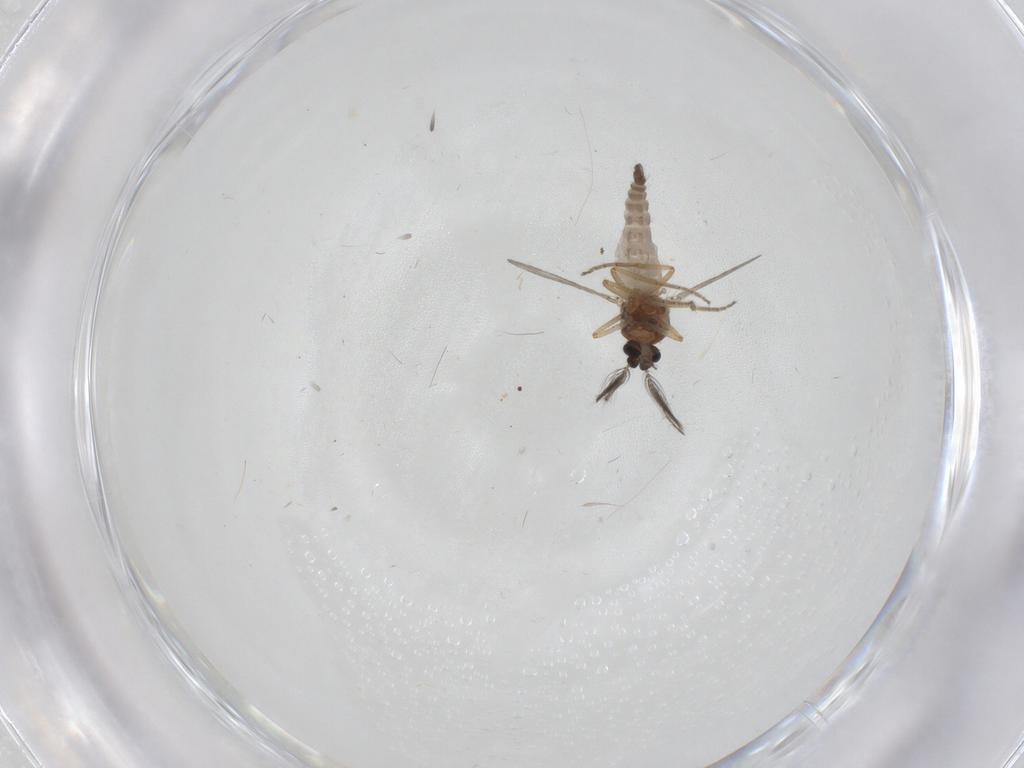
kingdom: Animalia
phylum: Arthropoda
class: Insecta
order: Diptera
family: Ceratopogonidae
